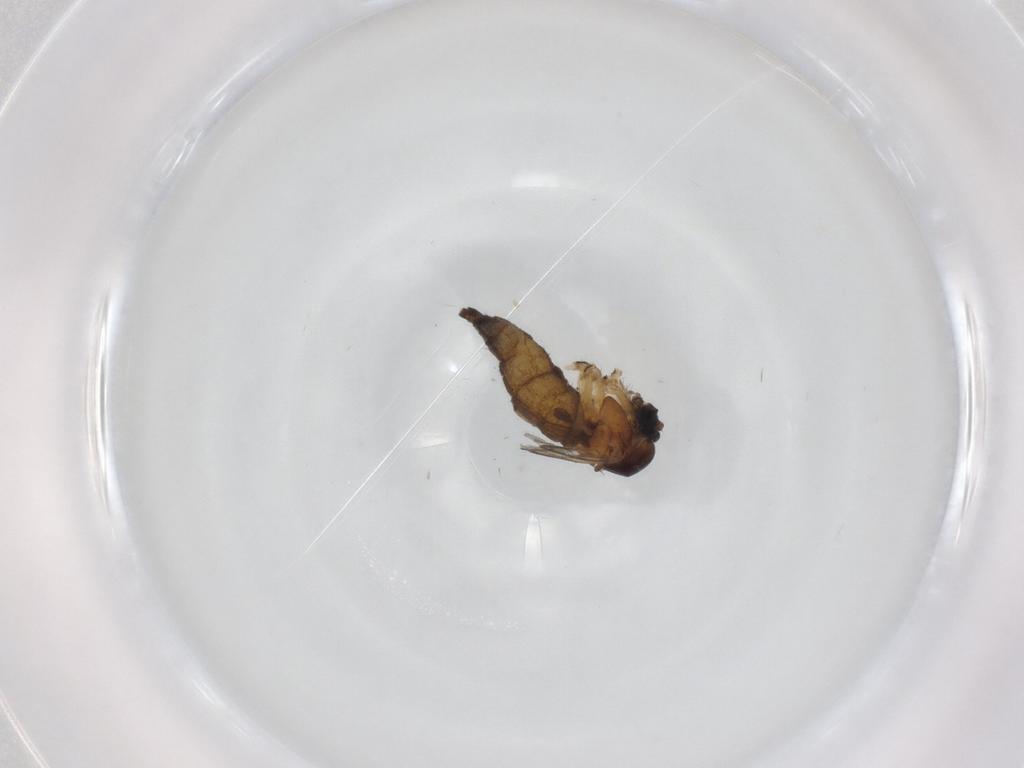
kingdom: Animalia
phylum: Arthropoda
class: Insecta
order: Diptera
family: Sciaridae
